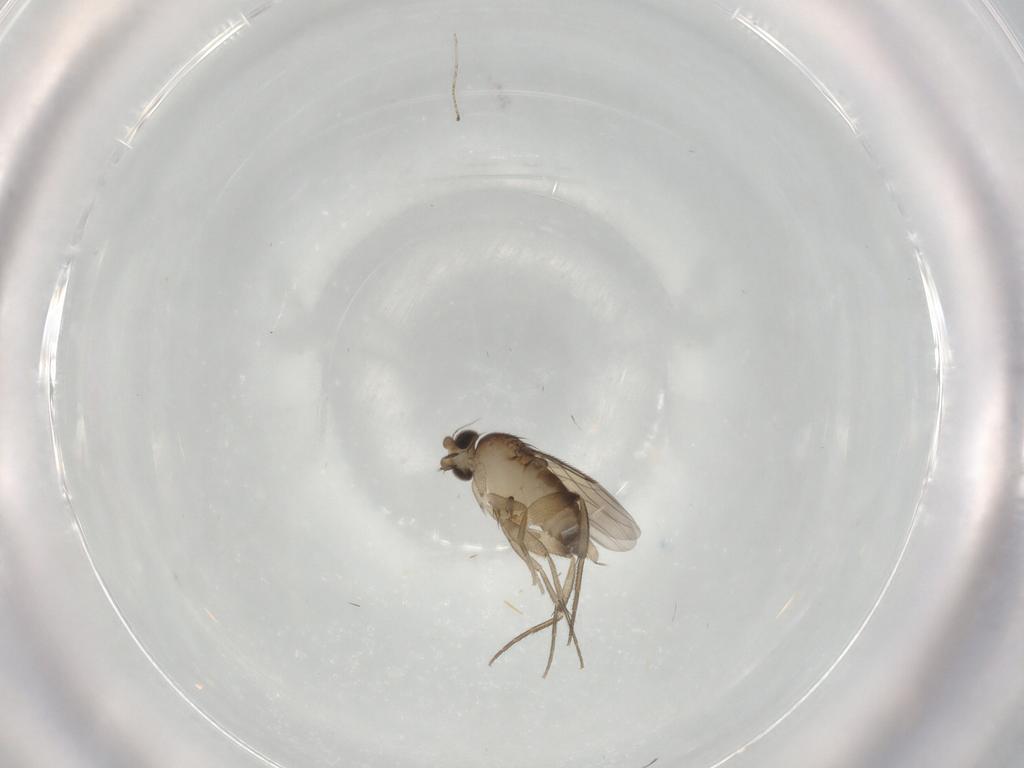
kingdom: Animalia
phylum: Arthropoda
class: Insecta
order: Diptera
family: Phoridae
